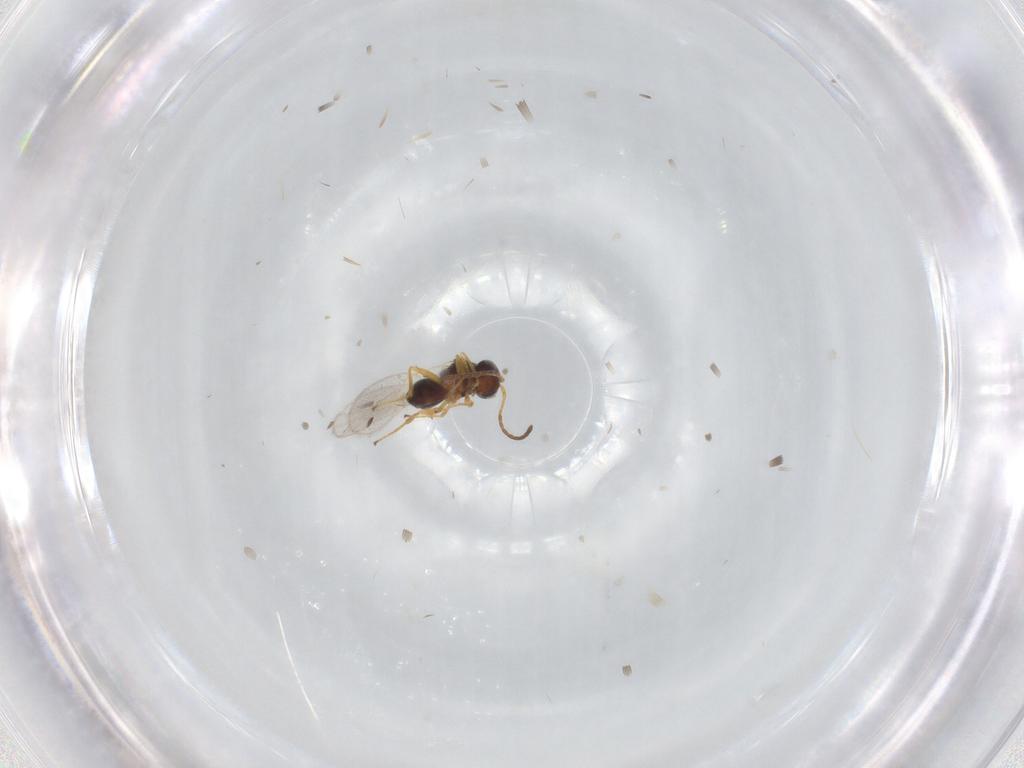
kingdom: Animalia
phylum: Arthropoda
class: Insecta
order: Hymenoptera
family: Figitidae
